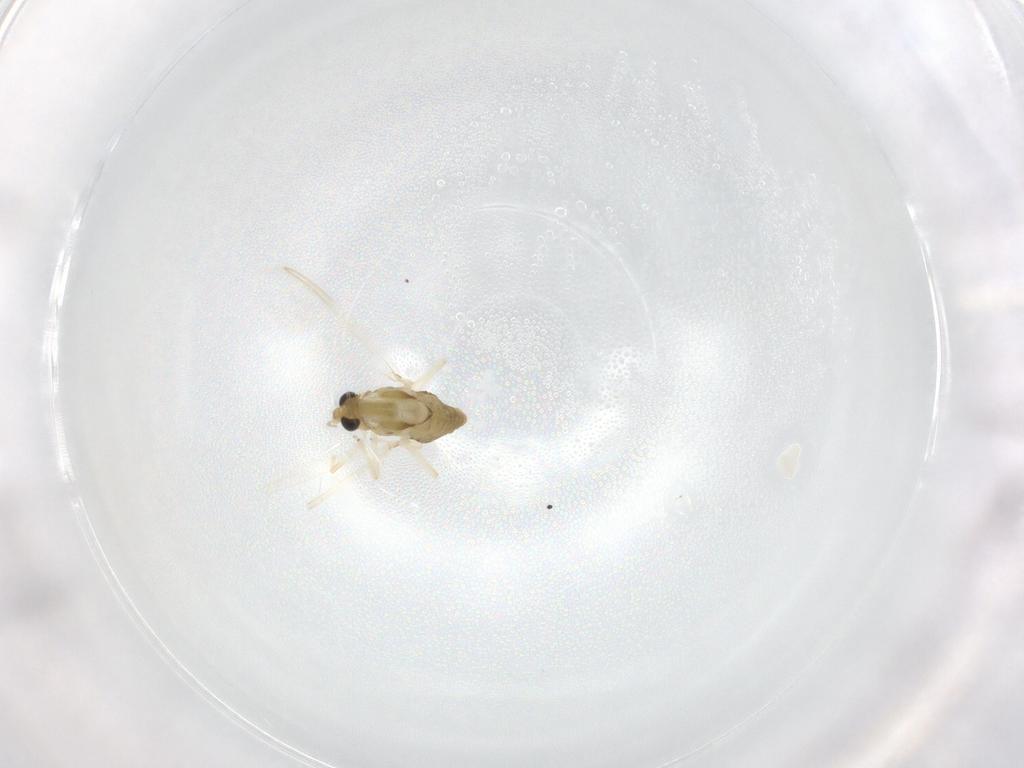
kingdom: Animalia
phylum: Arthropoda
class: Insecta
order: Diptera
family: Chironomidae
